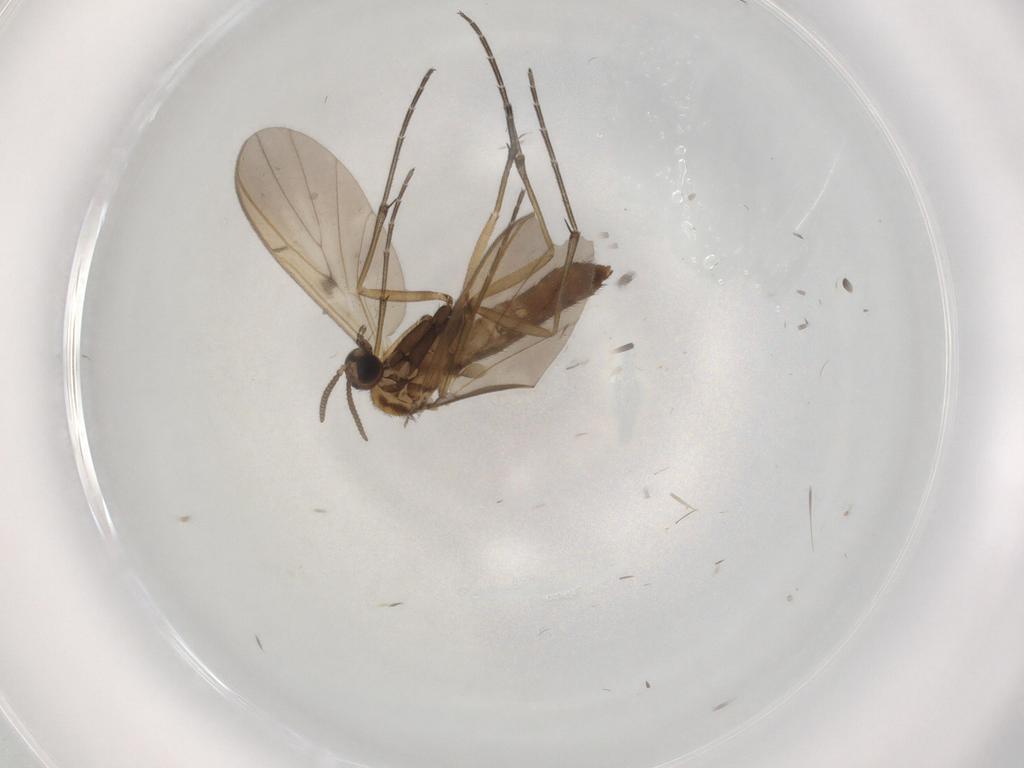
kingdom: Animalia
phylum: Arthropoda
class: Insecta
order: Diptera
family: Keroplatidae
